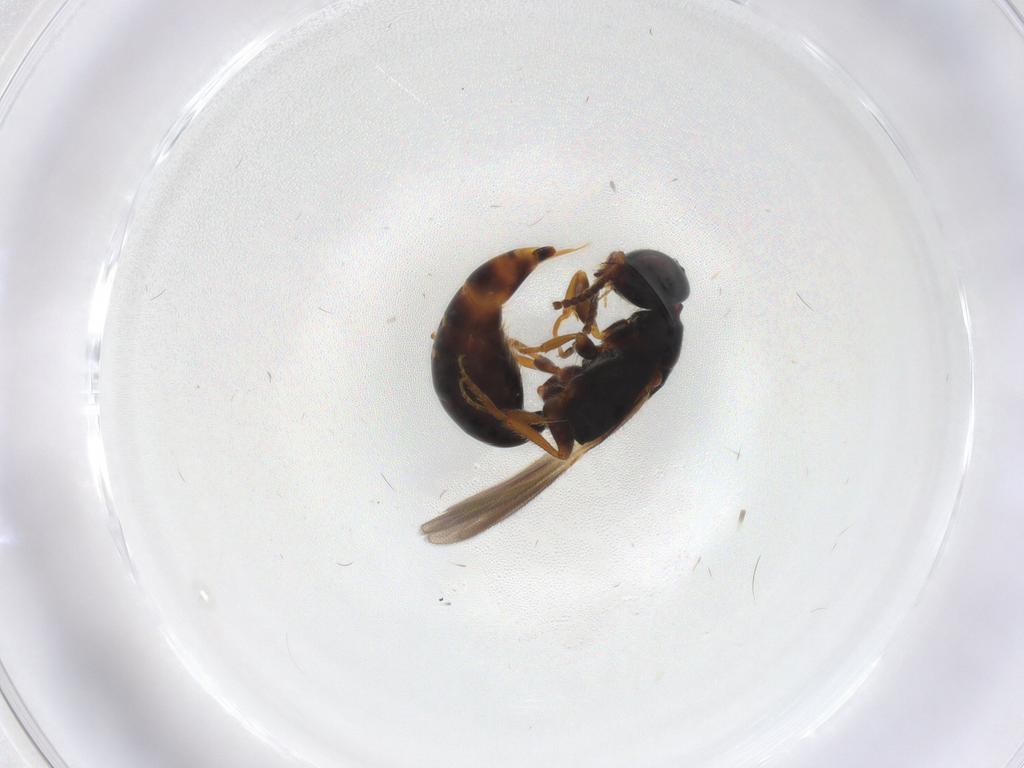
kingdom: Animalia
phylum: Arthropoda
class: Insecta
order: Hymenoptera
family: Bethylidae
